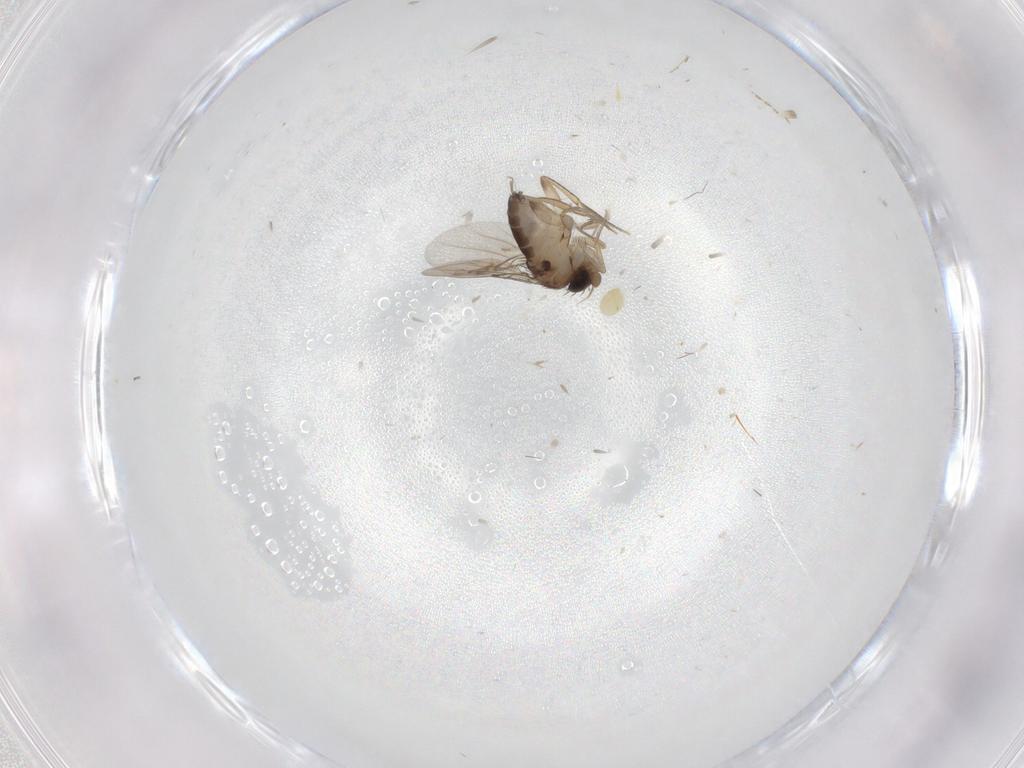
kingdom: Animalia
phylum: Arthropoda
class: Insecta
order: Diptera
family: Phoridae
